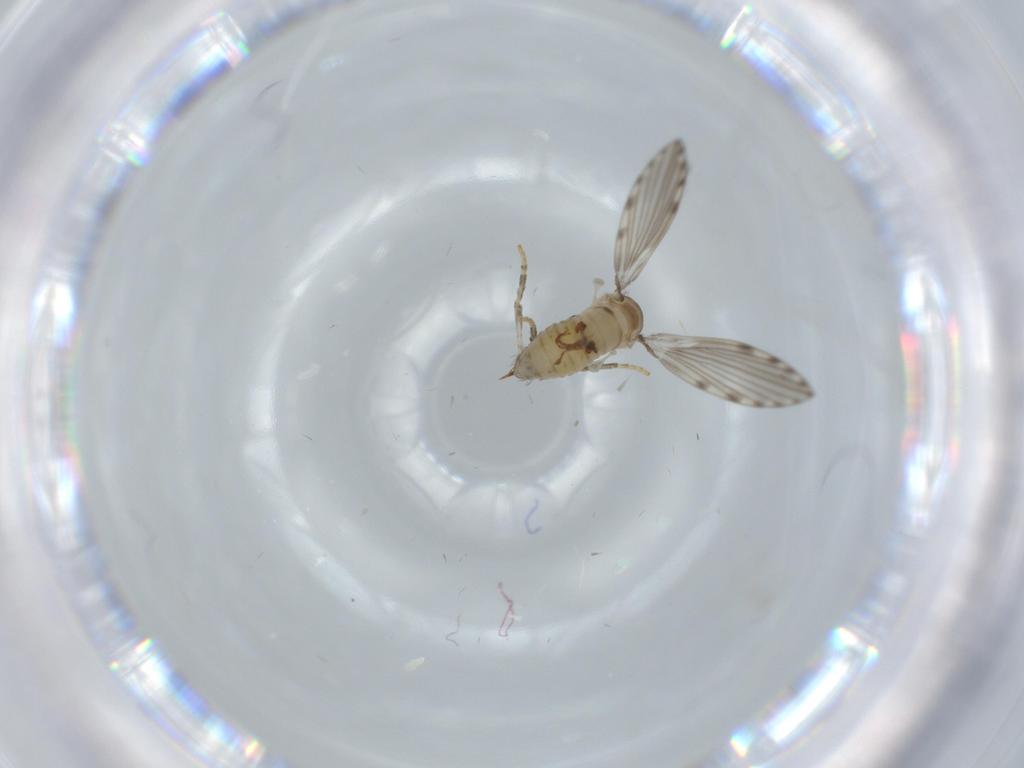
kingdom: Animalia
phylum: Arthropoda
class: Insecta
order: Diptera
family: Psychodidae
